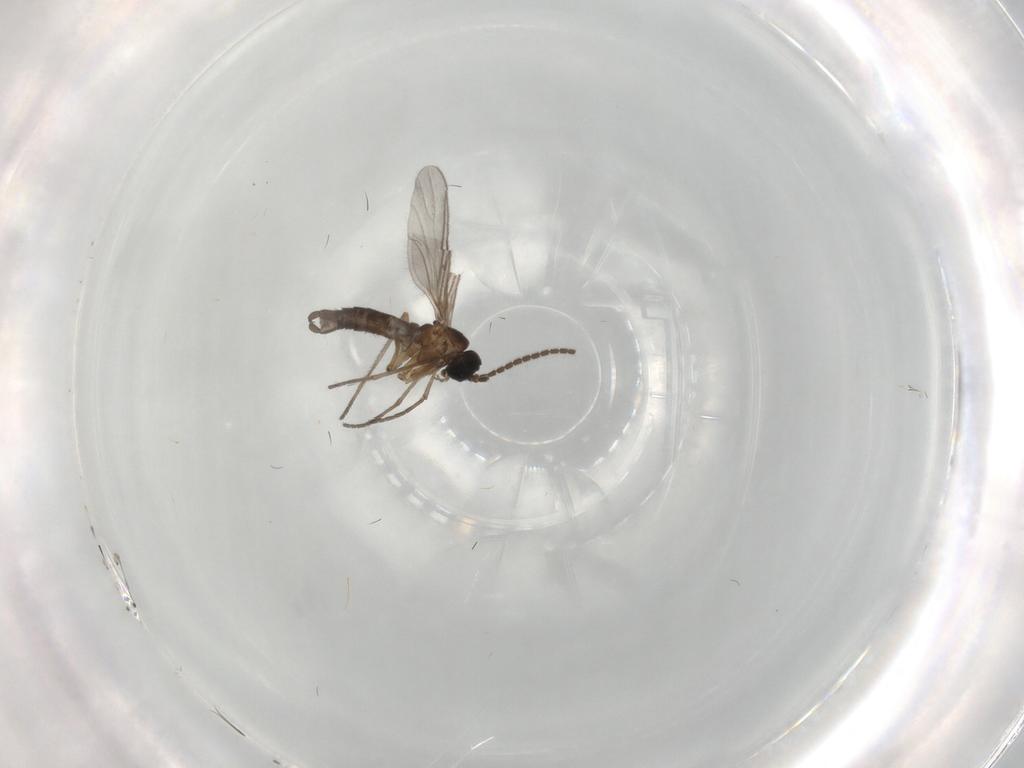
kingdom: Animalia
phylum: Arthropoda
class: Insecta
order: Diptera
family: Sciaridae
